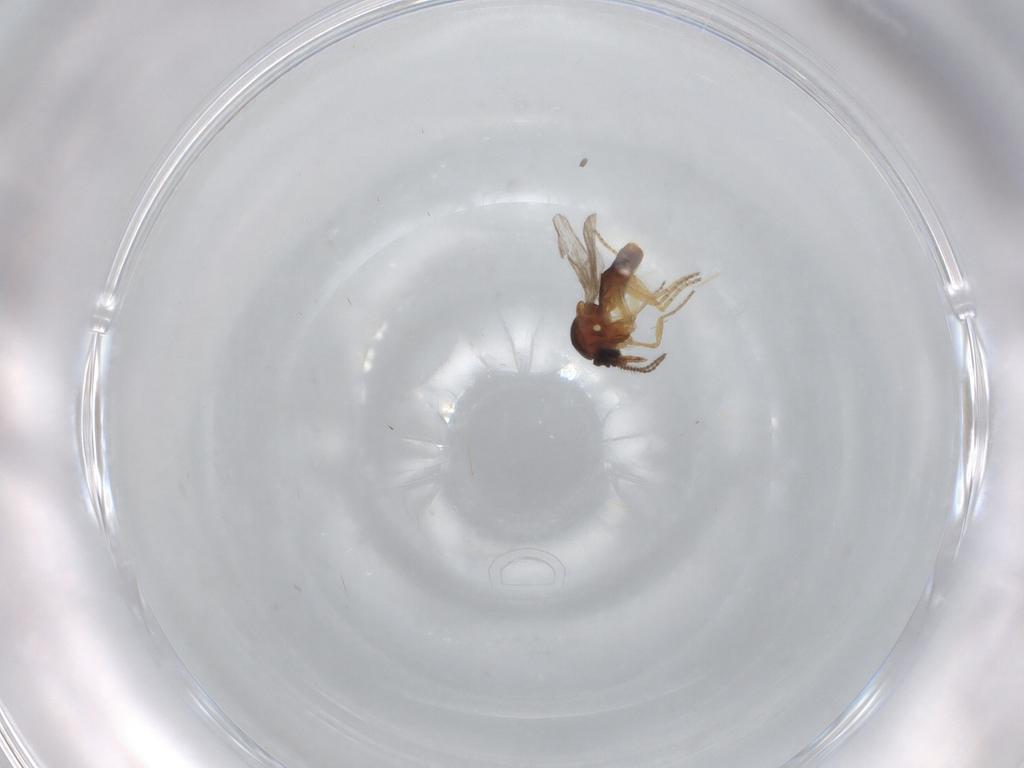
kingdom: Animalia
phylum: Arthropoda
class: Insecta
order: Diptera
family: Ceratopogonidae
